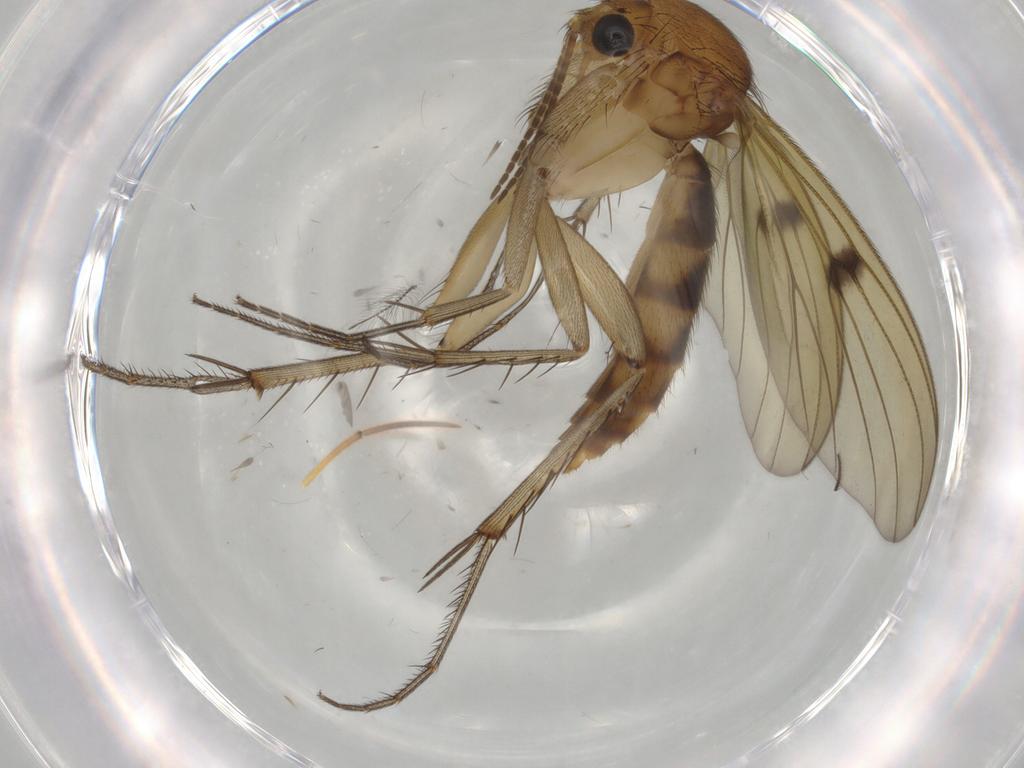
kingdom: Animalia
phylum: Arthropoda
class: Insecta
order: Diptera
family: Mycetophilidae
